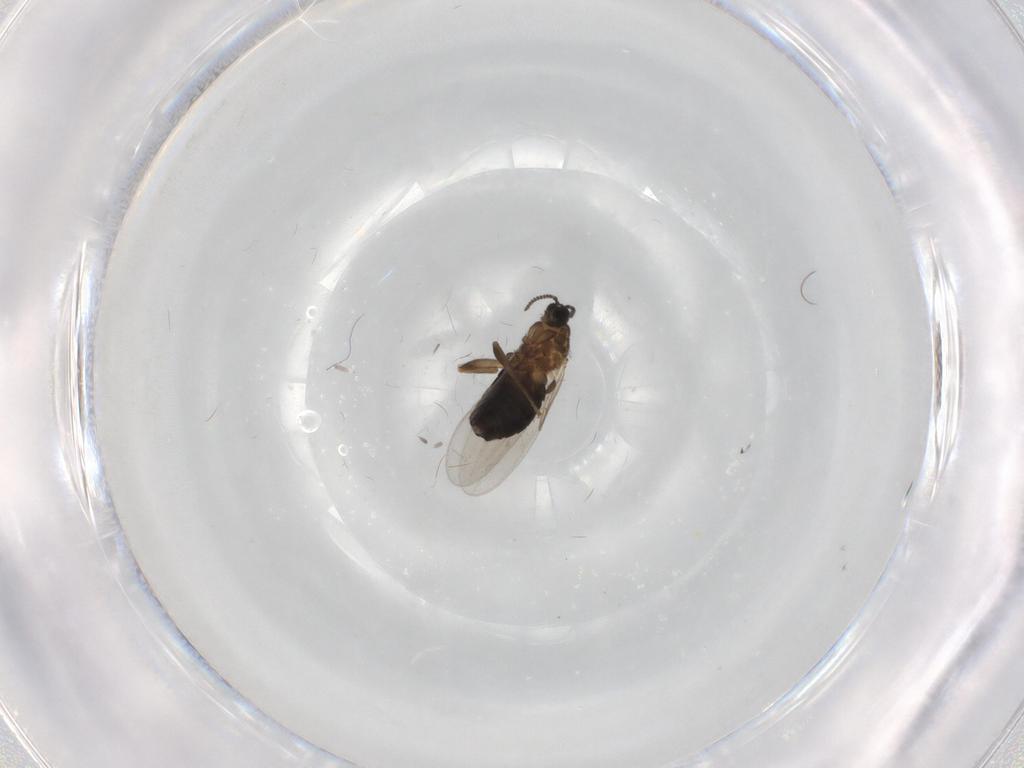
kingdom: Animalia
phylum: Arthropoda
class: Insecta
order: Diptera
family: Scatopsidae
